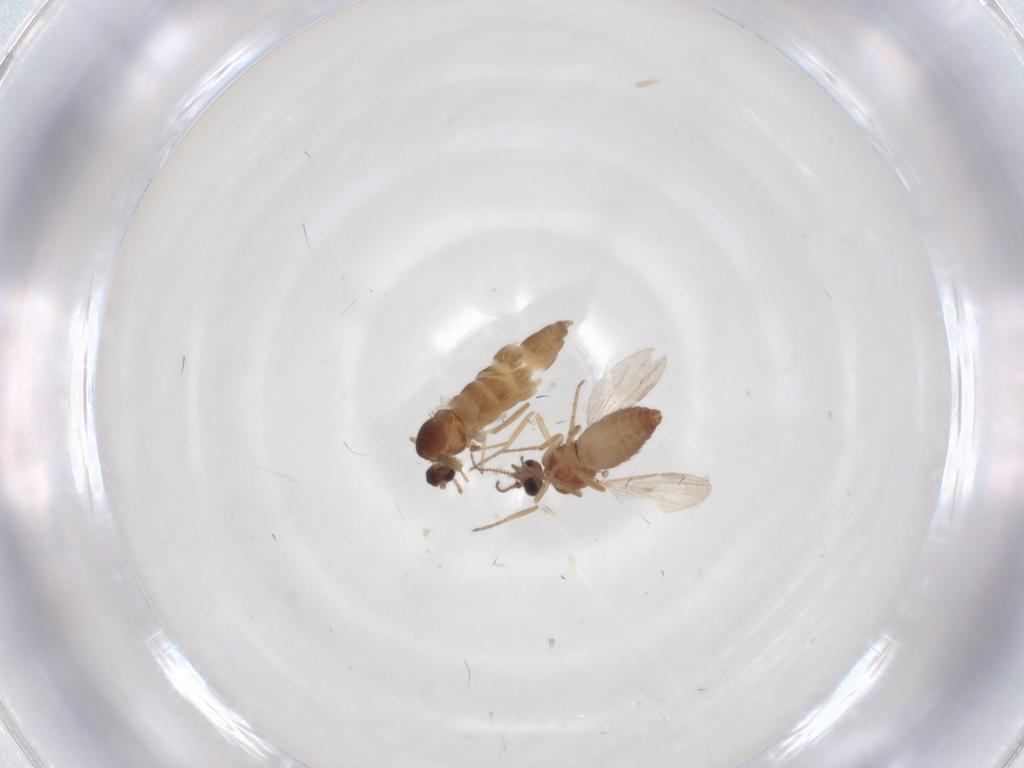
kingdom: Animalia
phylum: Arthropoda
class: Insecta
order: Diptera
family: Cecidomyiidae
